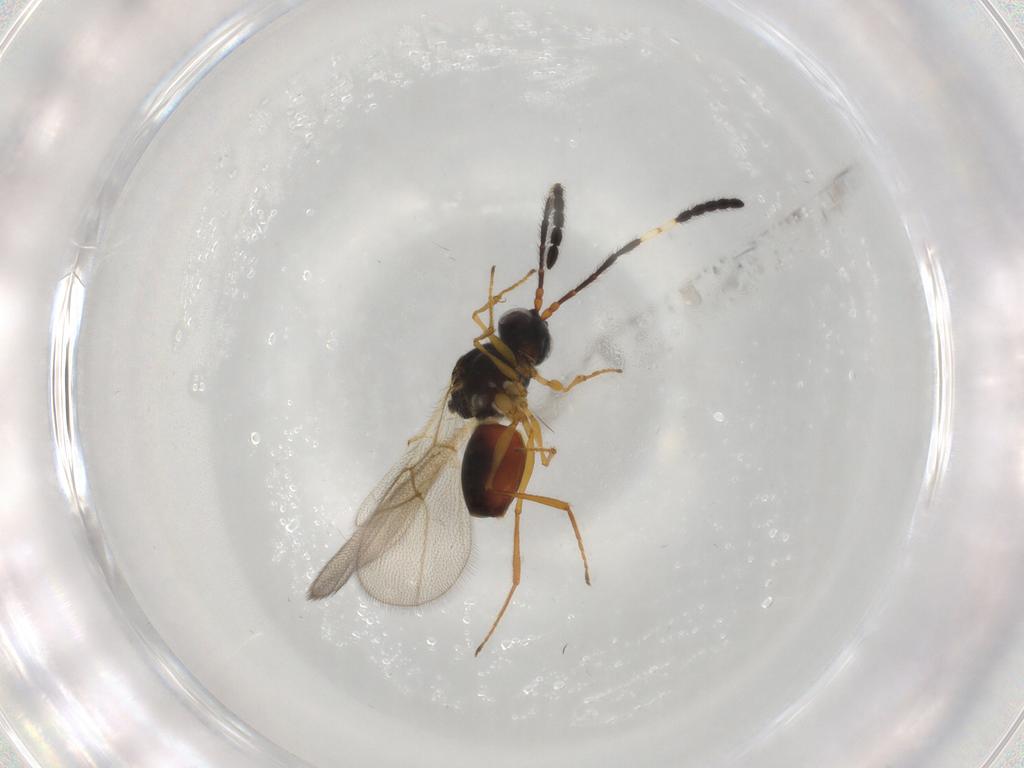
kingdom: Animalia
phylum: Arthropoda
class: Insecta
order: Hymenoptera
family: Figitidae
